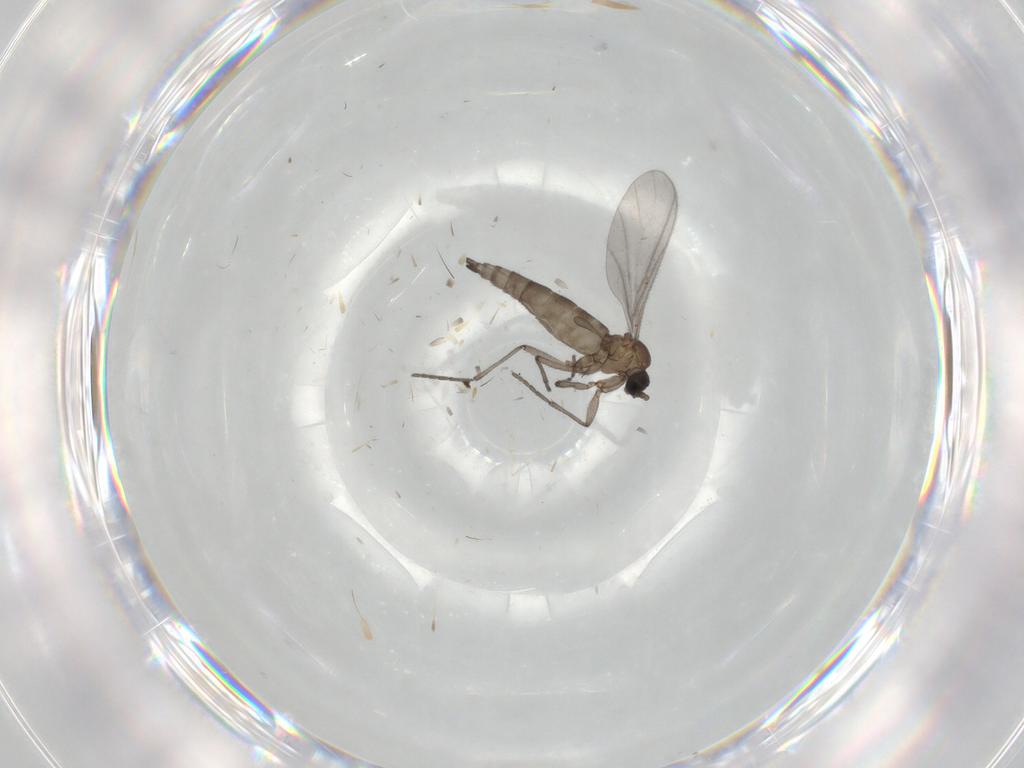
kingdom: Animalia
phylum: Arthropoda
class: Insecta
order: Diptera
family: Sciaridae
